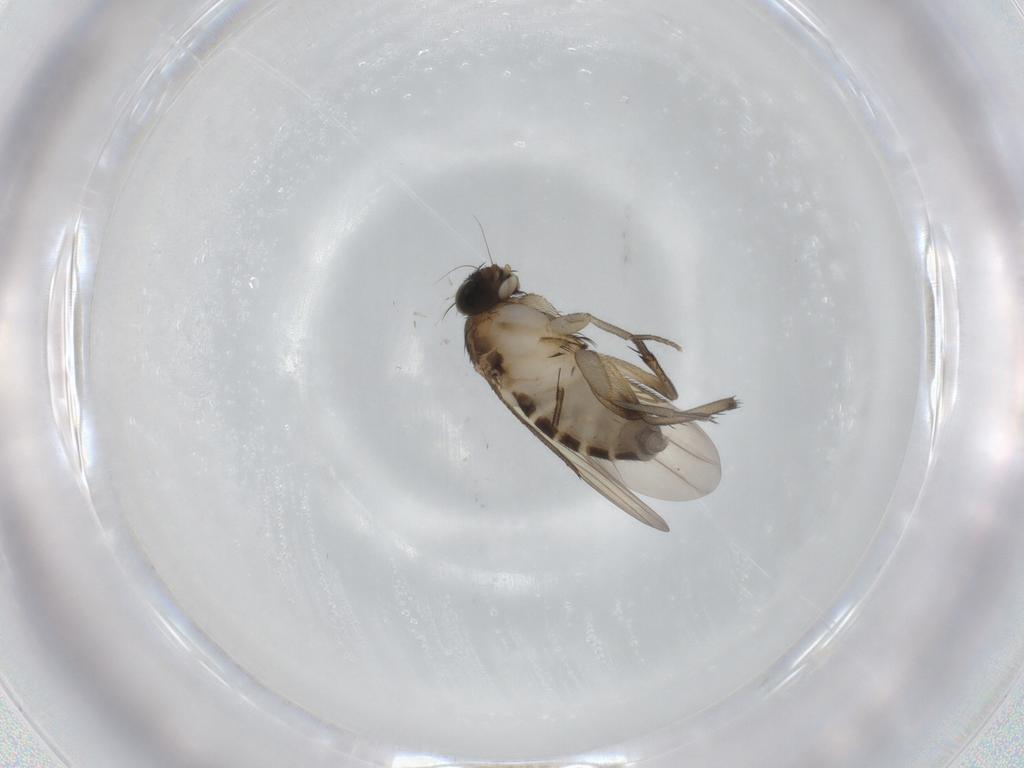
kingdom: Animalia
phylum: Arthropoda
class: Insecta
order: Diptera
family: Phoridae
